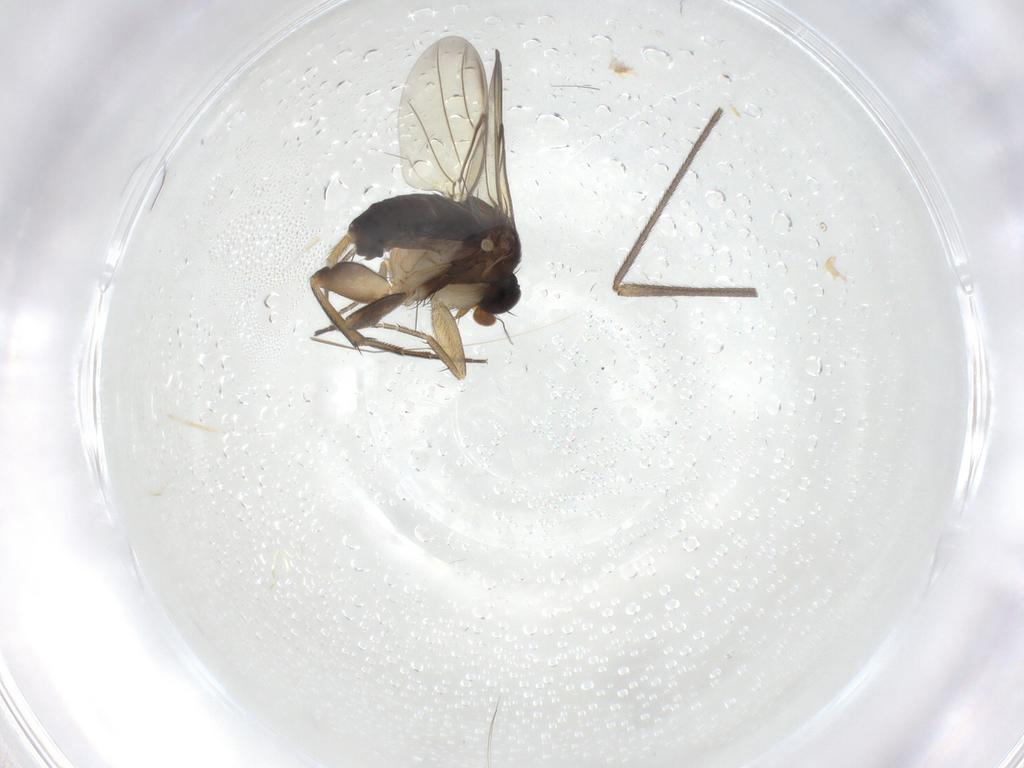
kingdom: Animalia
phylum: Arthropoda
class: Insecta
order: Diptera
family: Phoridae
